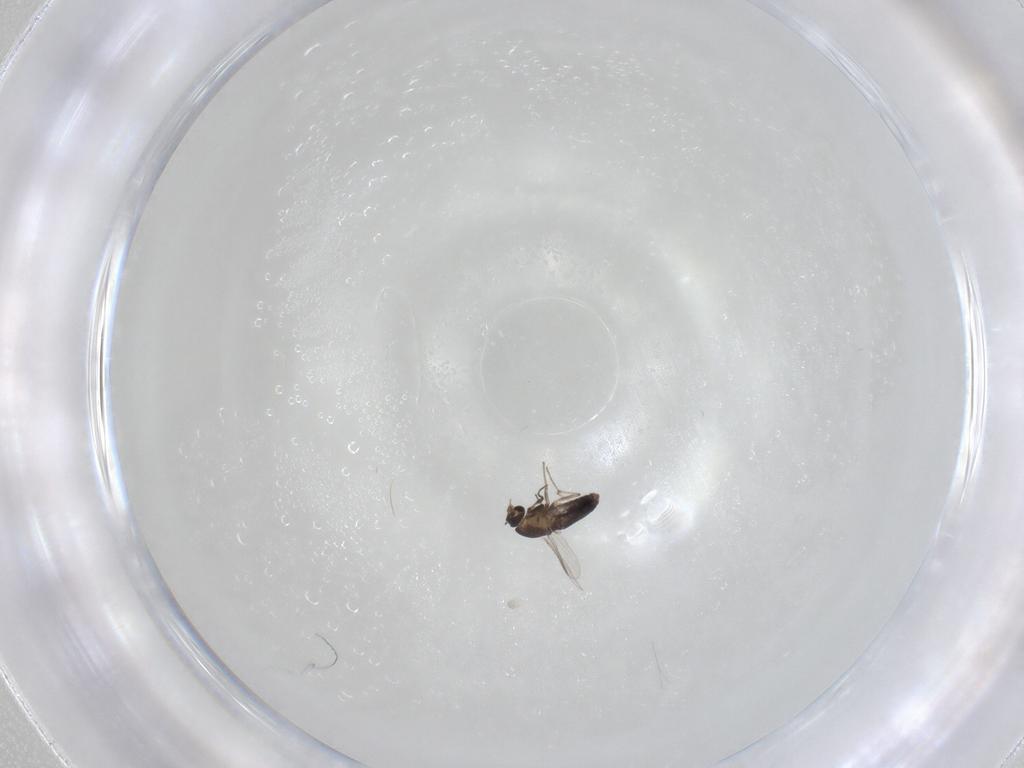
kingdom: Animalia
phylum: Arthropoda
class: Insecta
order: Diptera
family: Chironomidae
